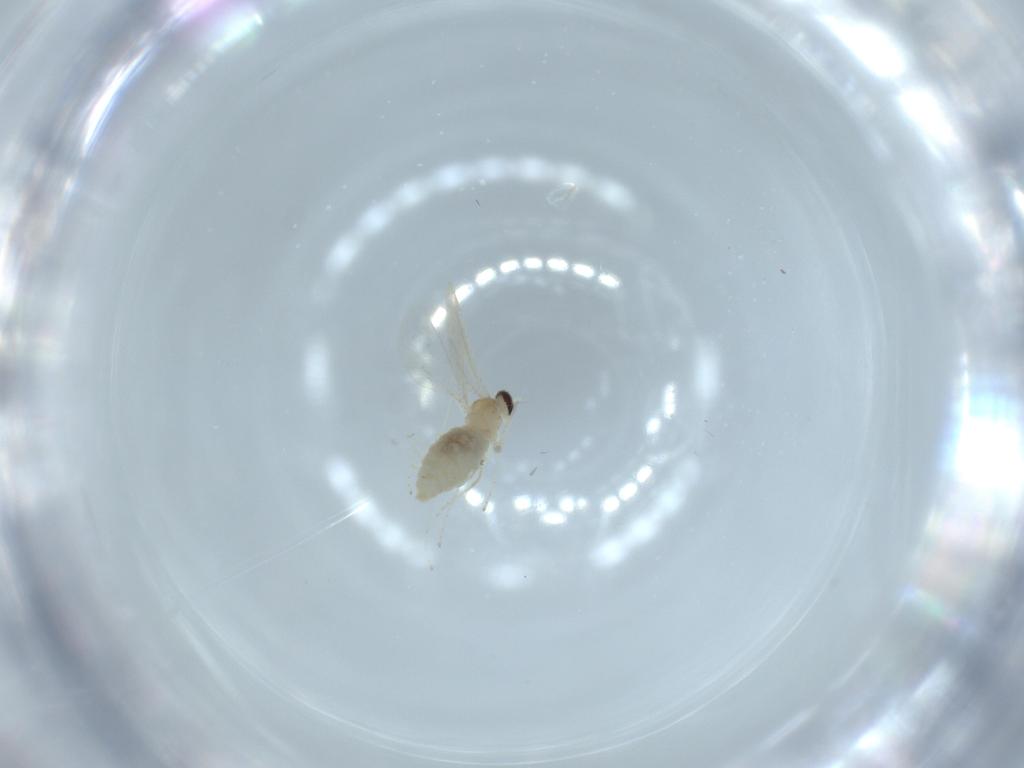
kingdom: Animalia
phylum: Arthropoda
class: Insecta
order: Diptera
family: Cecidomyiidae
